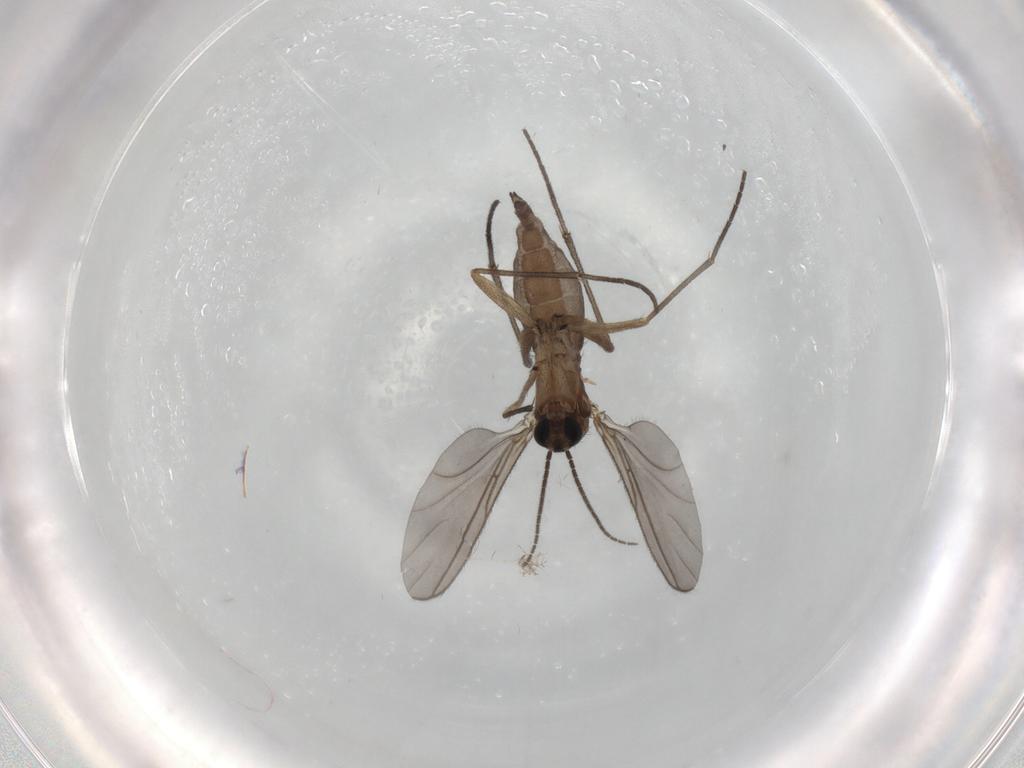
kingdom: Animalia
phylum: Arthropoda
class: Insecta
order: Diptera
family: Sciaridae
